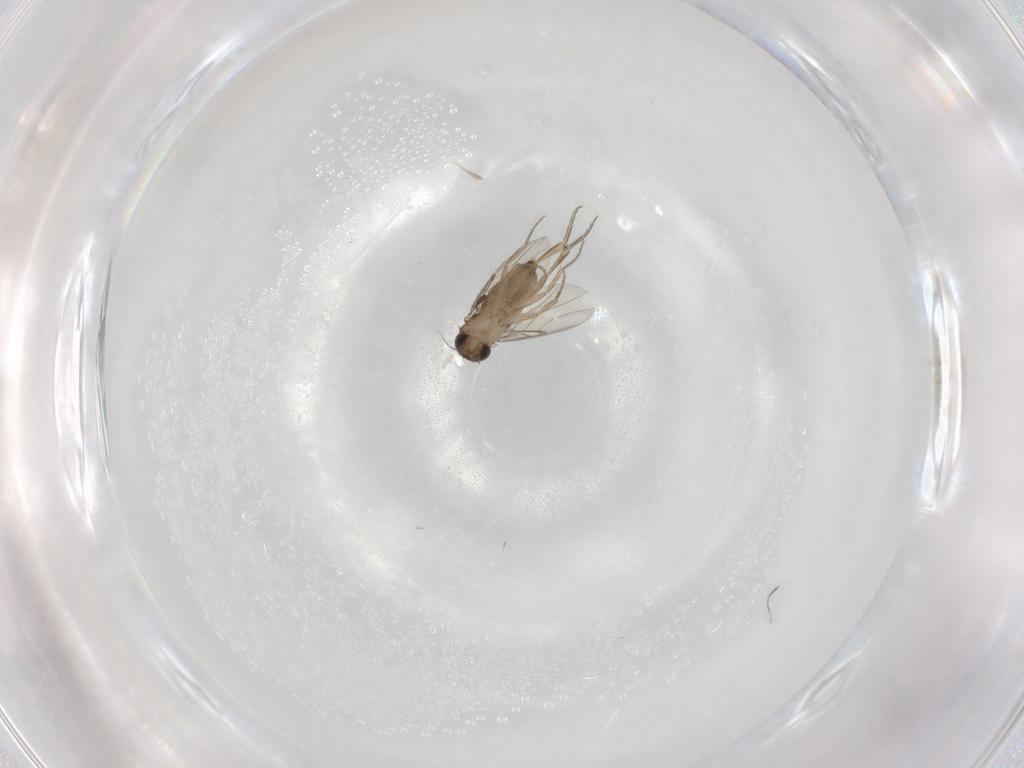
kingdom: Animalia
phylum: Arthropoda
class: Insecta
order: Diptera
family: Phoridae
